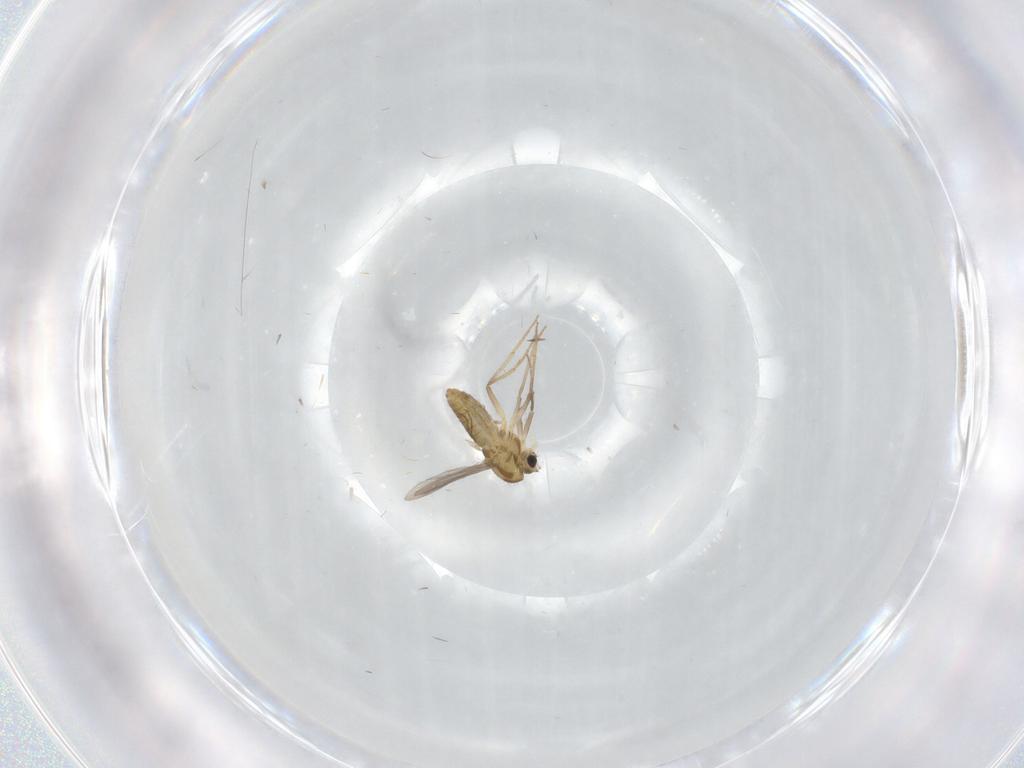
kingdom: Animalia
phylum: Arthropoda
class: Insecta
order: Diptera
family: Chironomidae
